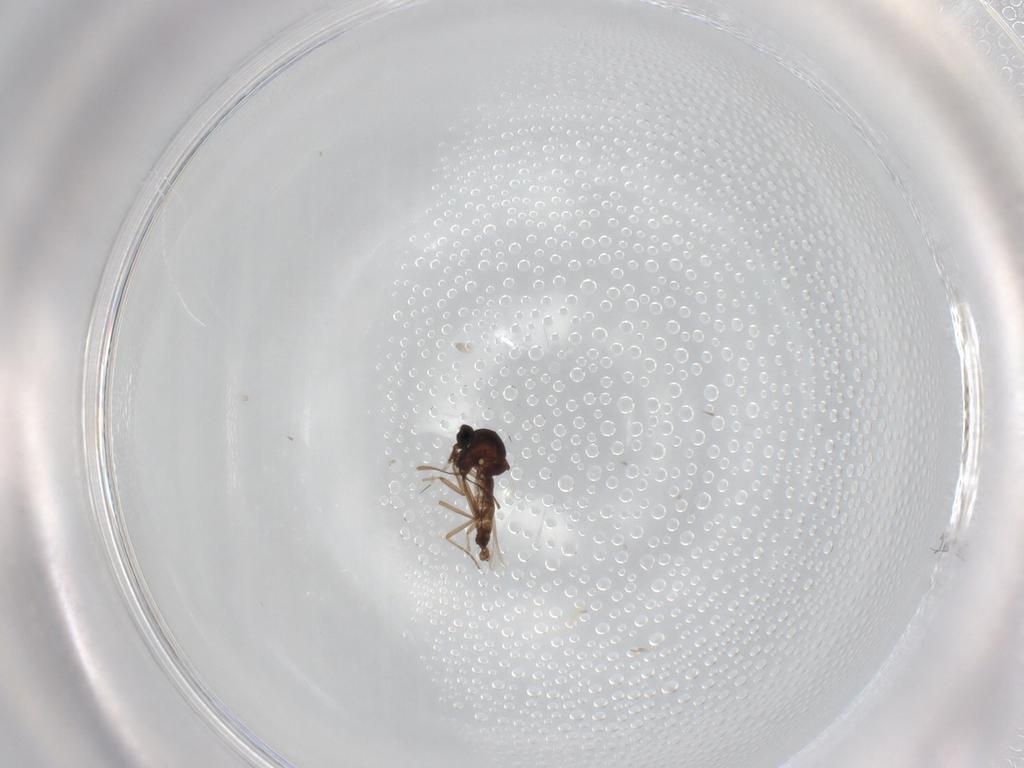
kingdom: Animalia
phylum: Arthropoda
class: Insecta
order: Diptera
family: Ceratopogonidae
